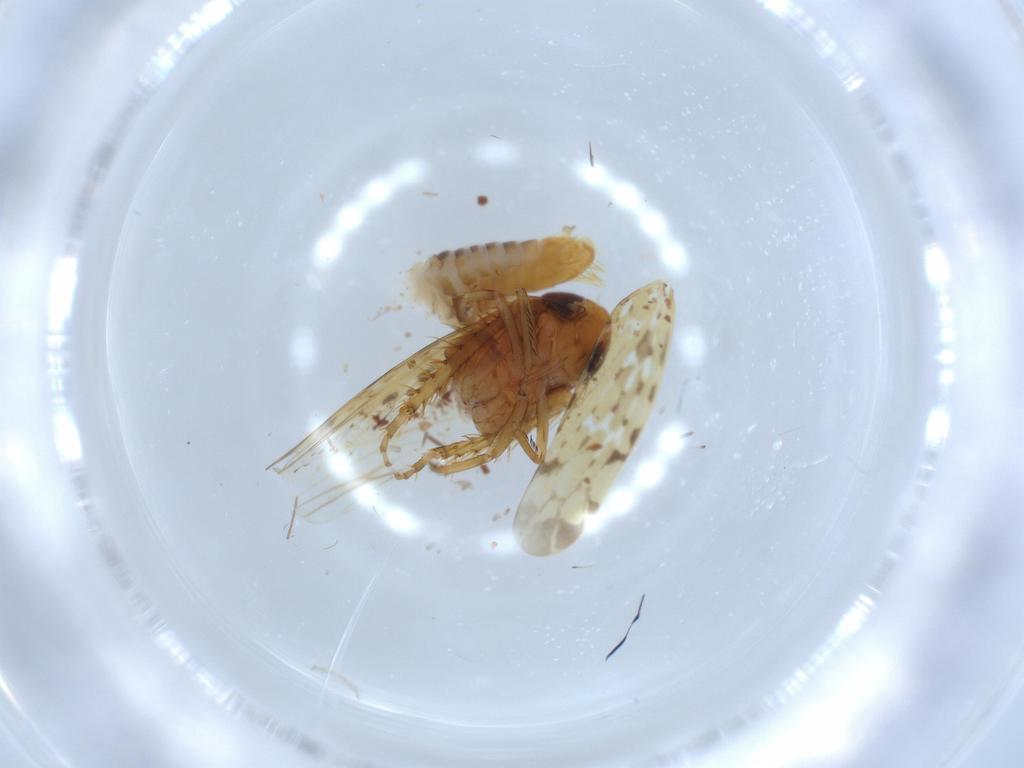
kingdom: Animalia
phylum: Arthropoda
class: Insecta
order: Hemiptera
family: Cicadellidae
